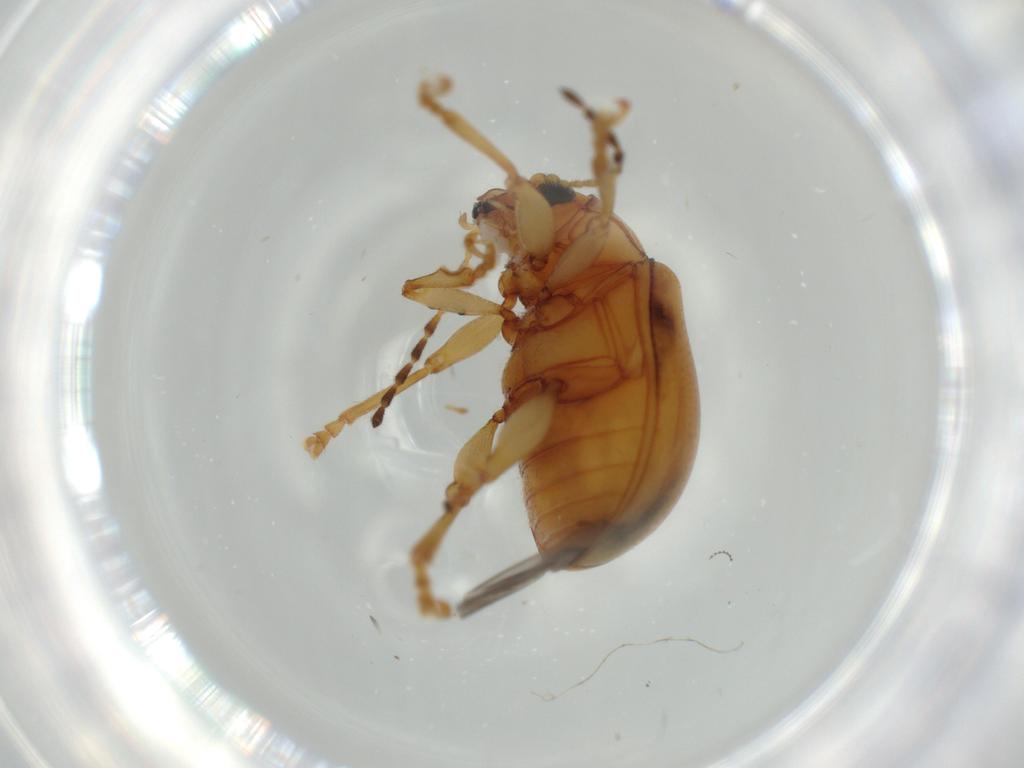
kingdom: Animalia
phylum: Arthropoda
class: Insecta
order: Coleoptera
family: Chrysomelidae
